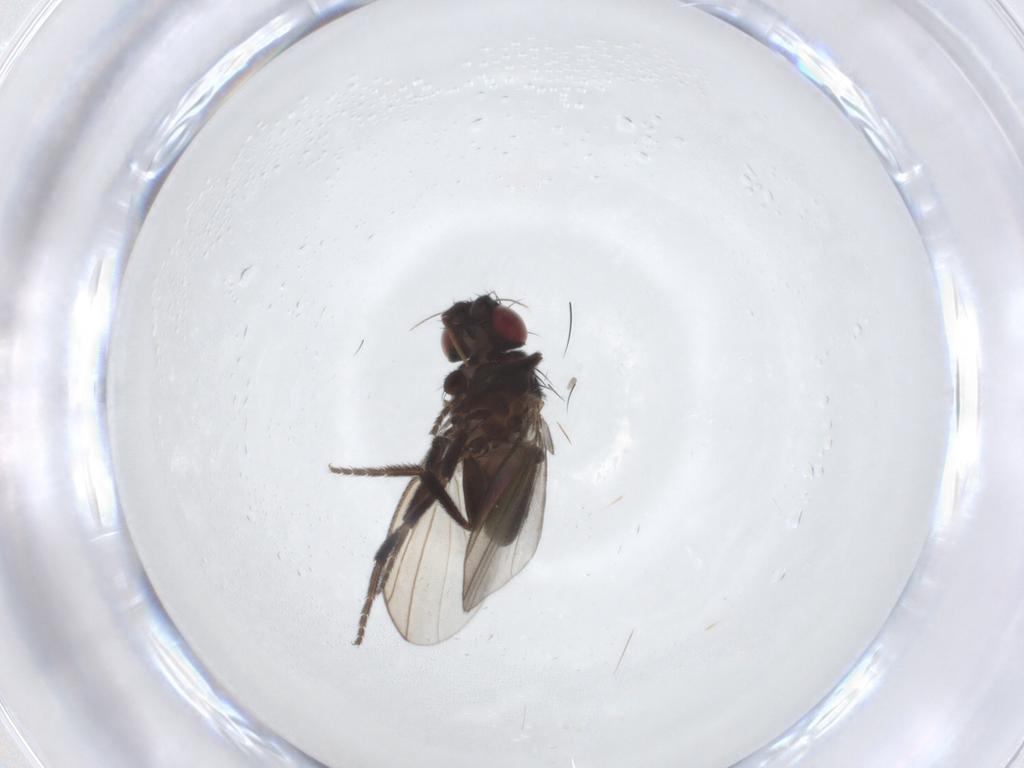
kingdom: Animalia
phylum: Arthropoda
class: Insecta
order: Diptera
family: Milichiidae
